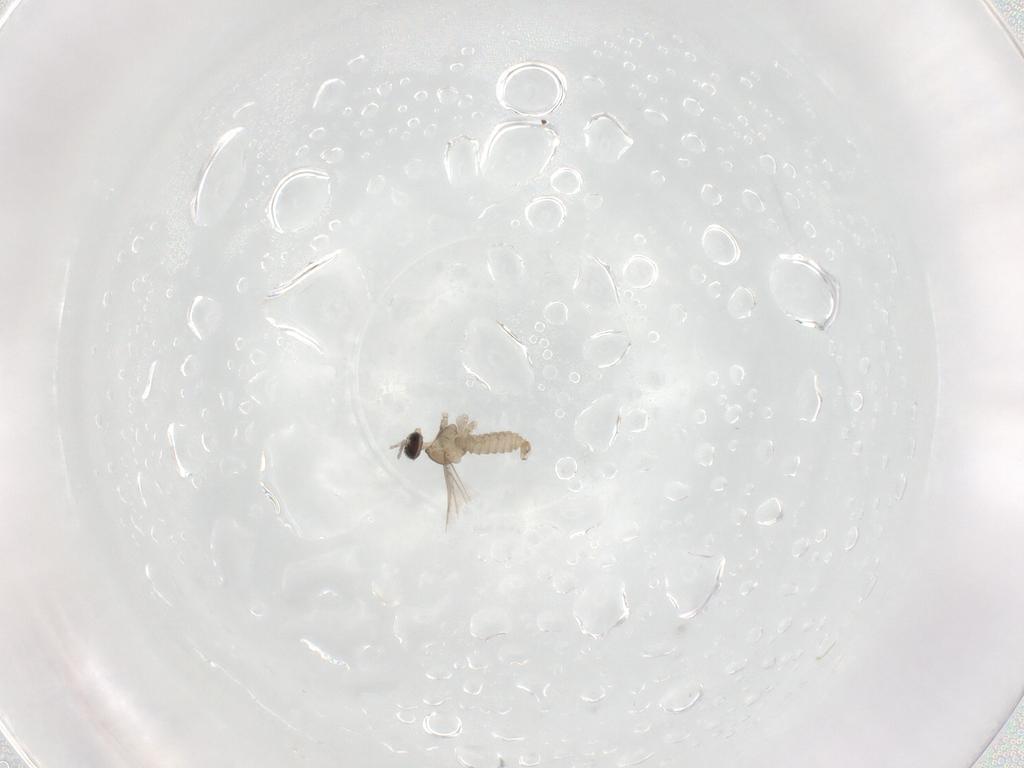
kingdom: Animalia
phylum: Arthropoda
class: Insecta
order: Diptera
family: Cecidomyiidae
